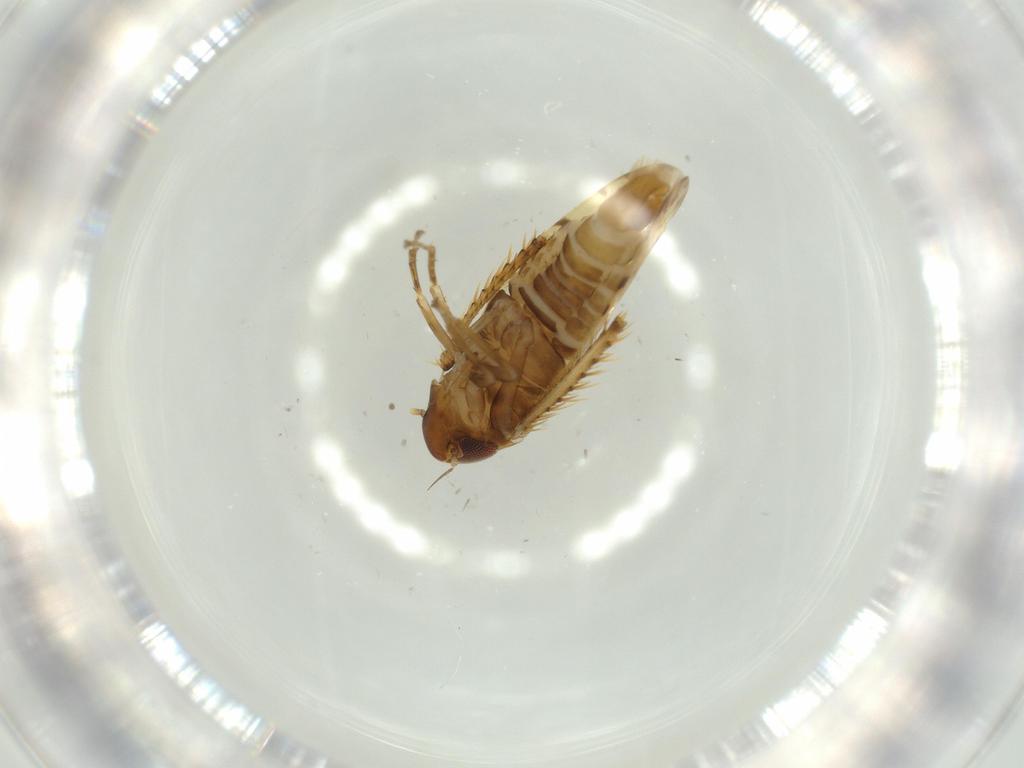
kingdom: Animalia
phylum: Arthropoda
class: Insecta
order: Hemiptera
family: Cicadellidae
